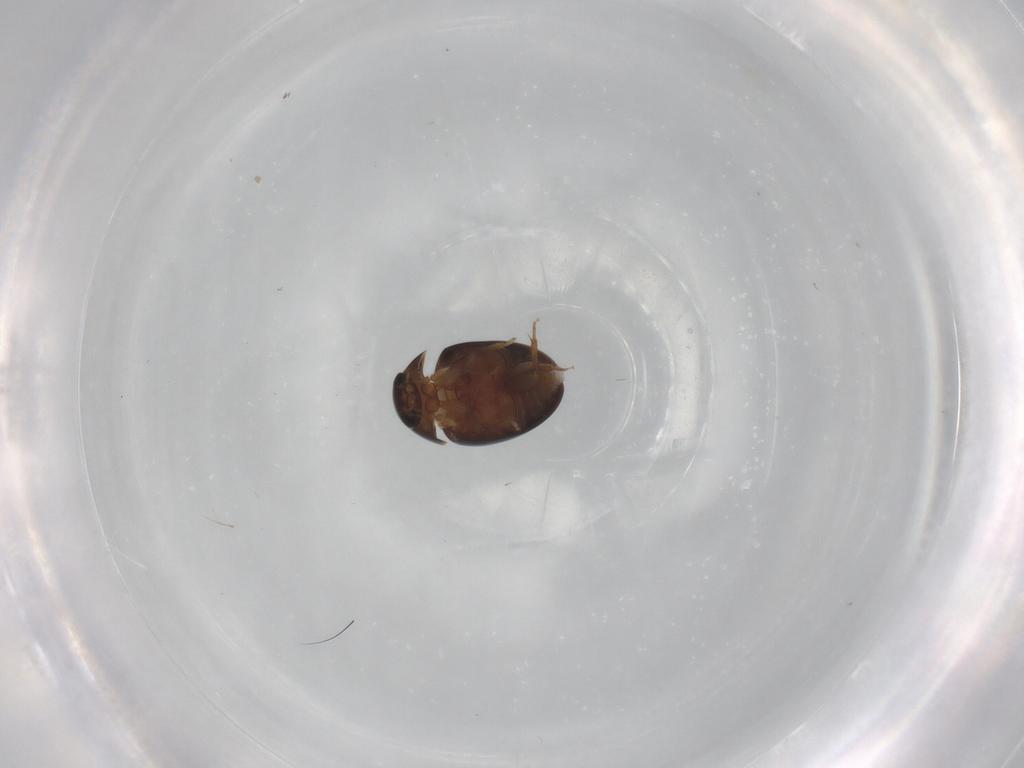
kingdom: Animalia
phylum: Arthropoda
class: Insecta
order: Coleoptera
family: Phalacridae
